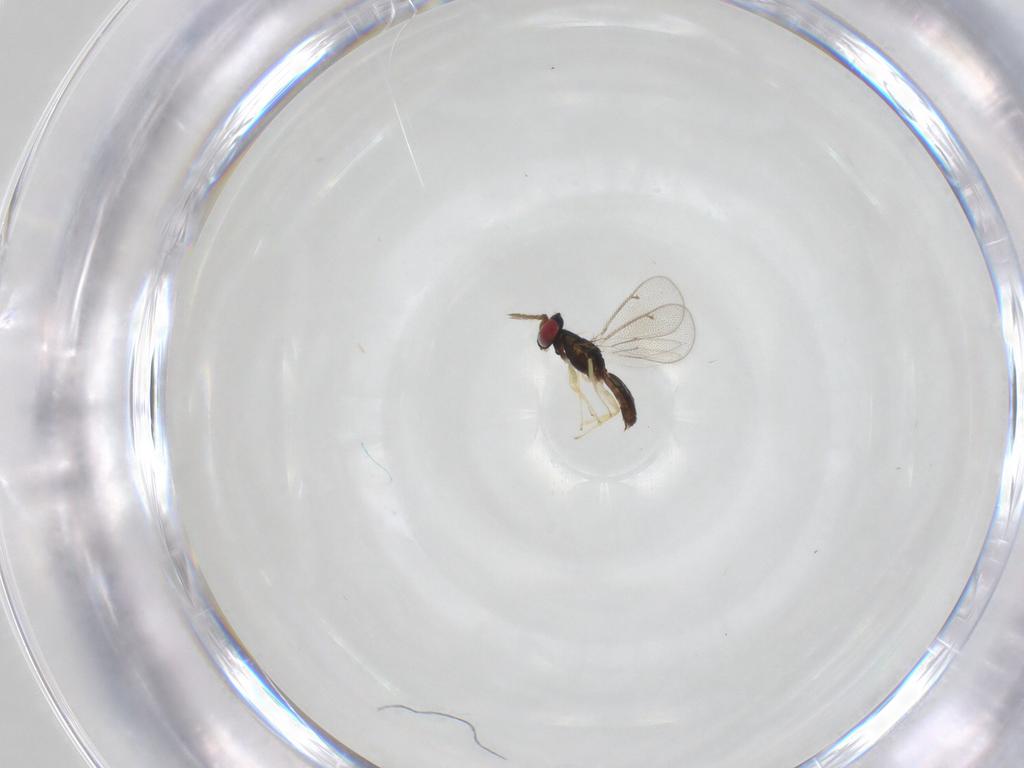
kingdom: Animalia
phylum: Arthropoda
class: Insecta
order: Hymenoptera
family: Eulophidae
